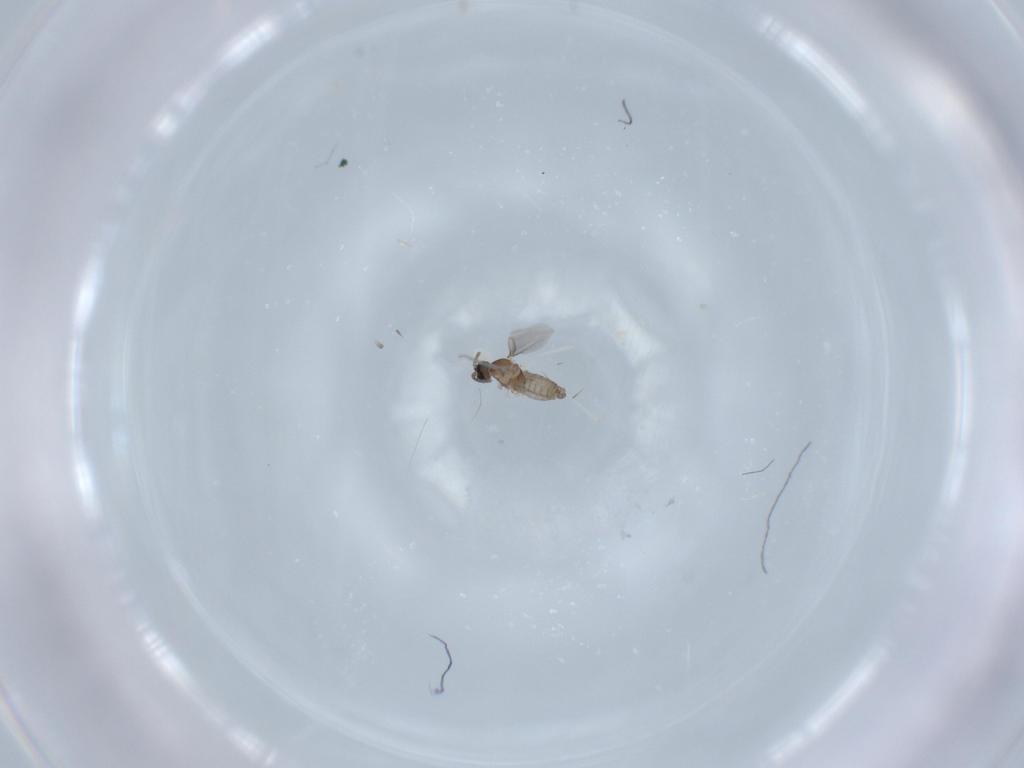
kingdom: Animalia
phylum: Arthropoda
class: Insecta
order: Diptera
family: Cecidomyiidae
